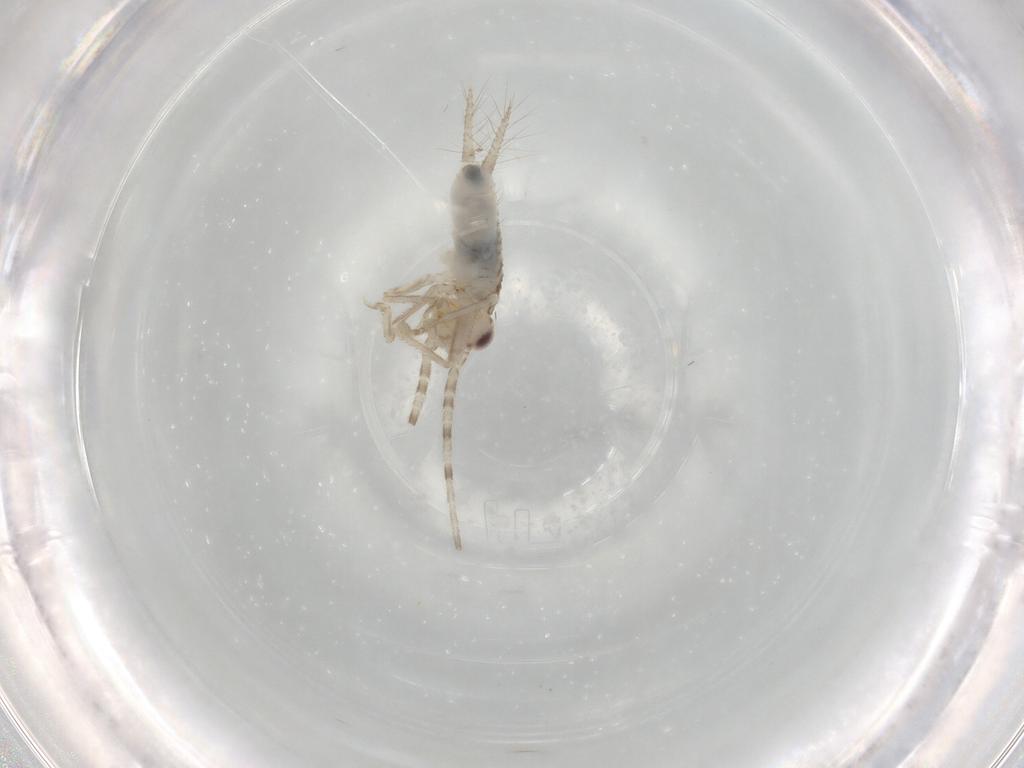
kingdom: Animalia
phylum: Arthropoda
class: Insecta
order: Orthoptera
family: Trigonidiidae
